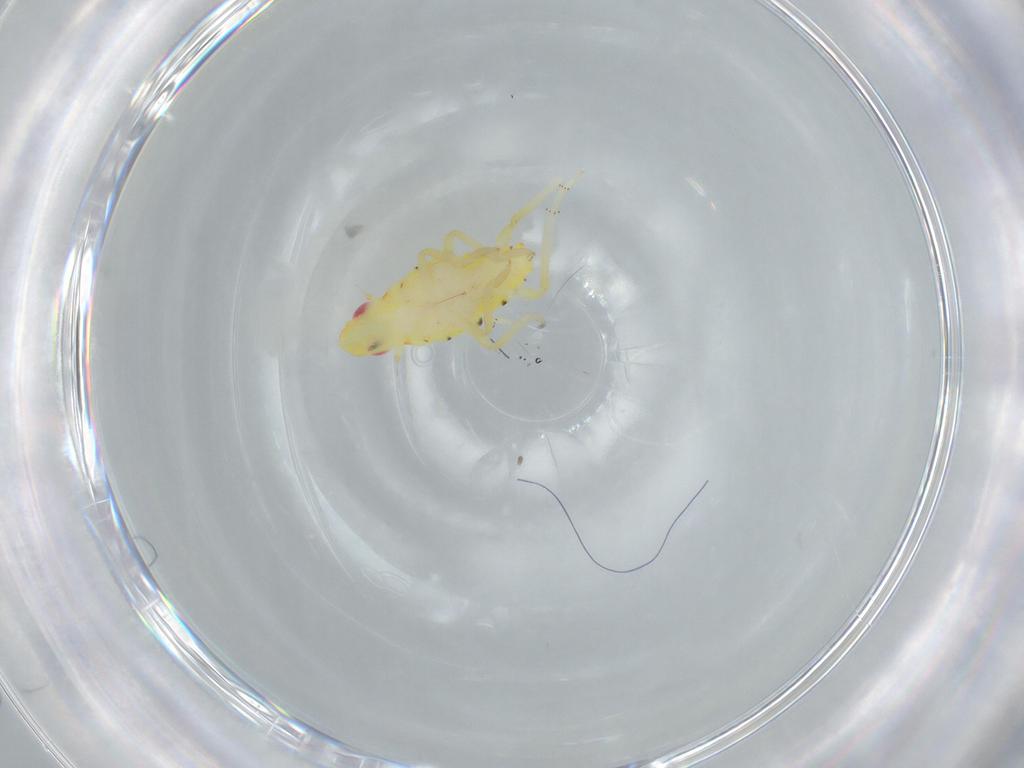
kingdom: Animalia
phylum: Arthropoda
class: Insecta
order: Hemiptera
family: Tropiduchidae
